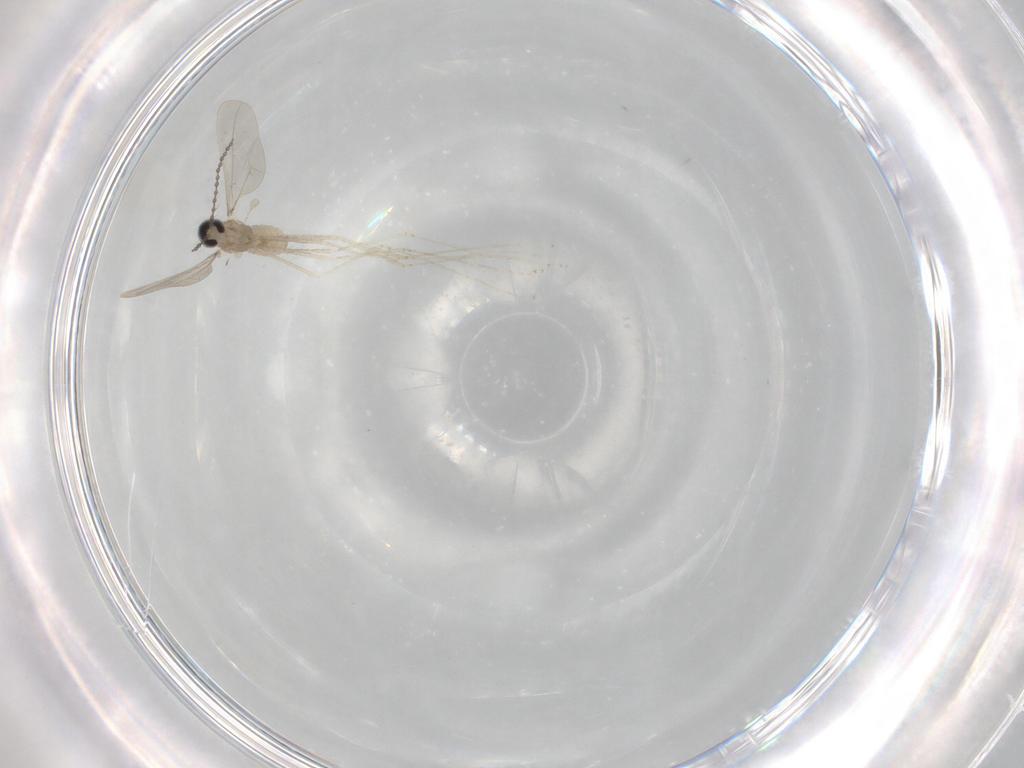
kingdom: Animalia
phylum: Arthropoda
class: Insecta
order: Diptera
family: Cecidomyiidae
